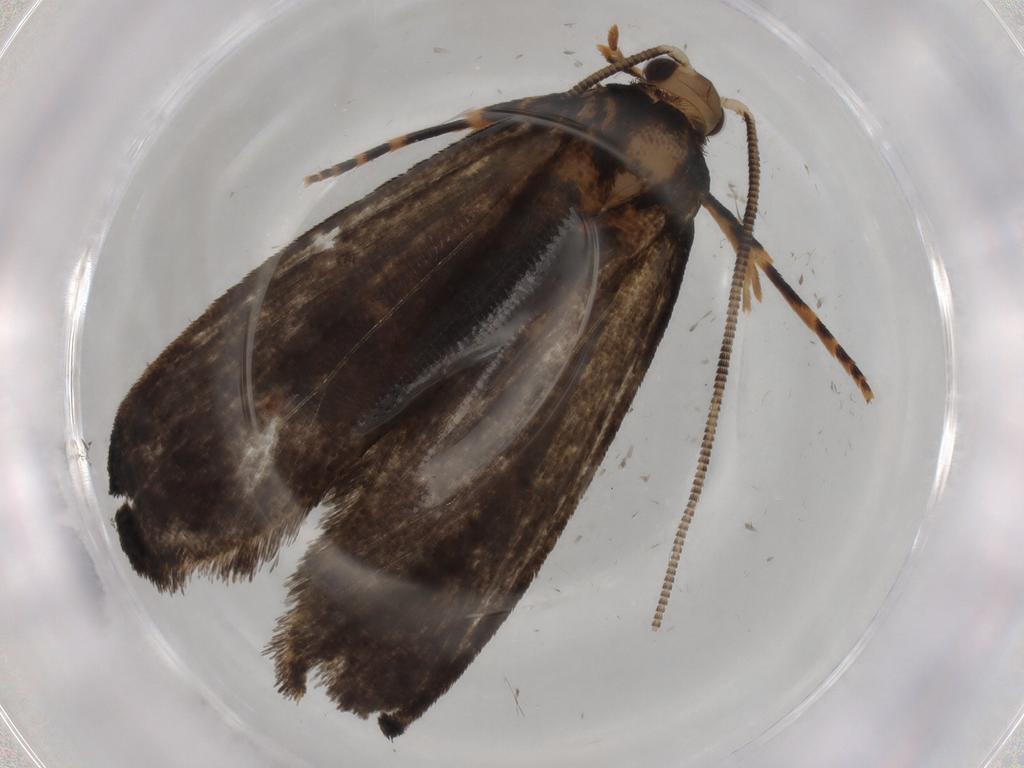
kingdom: Animalia
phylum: Arthropoda
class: Insecta
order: Lepidoptera
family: Tineidae
